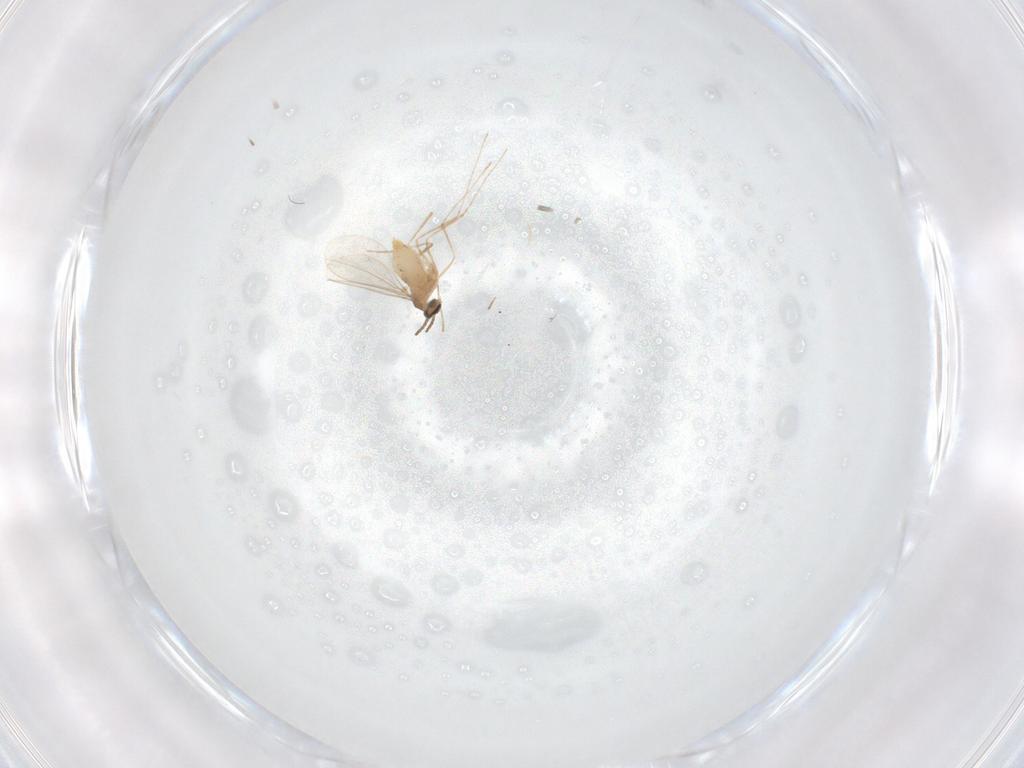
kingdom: Animalia
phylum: Arthropoda
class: Insecta
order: Diptera
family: Cecidomyiidae
